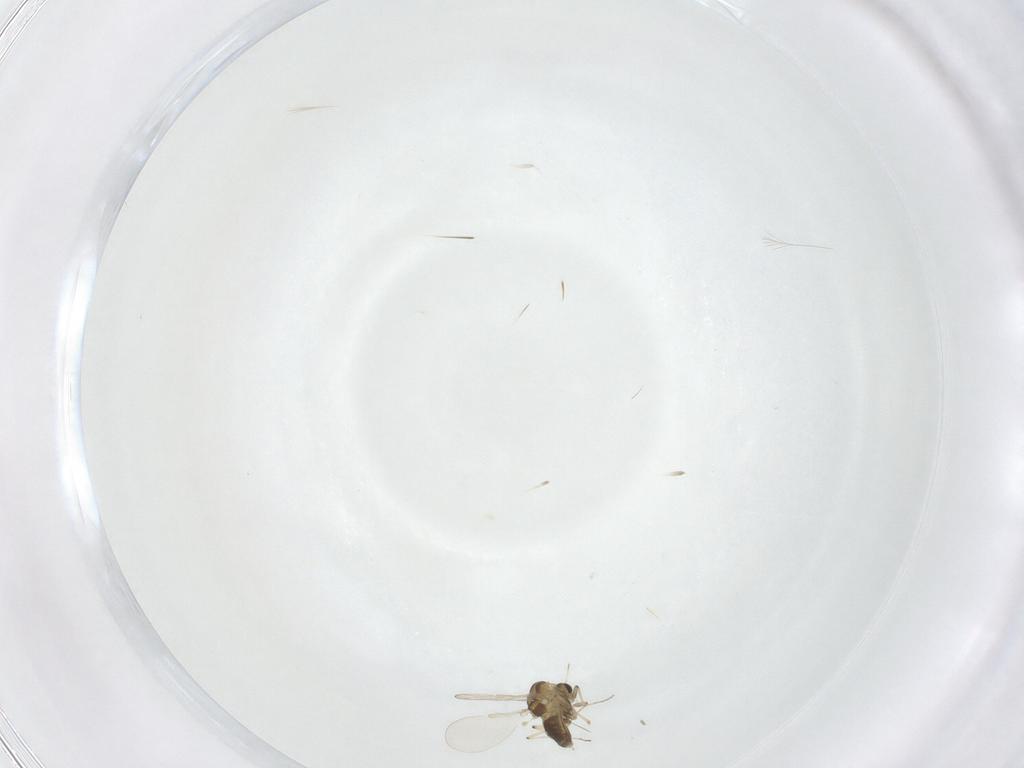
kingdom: Animalia
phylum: Arthropoda
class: Insecta
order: Diptera
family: Chironomidae
